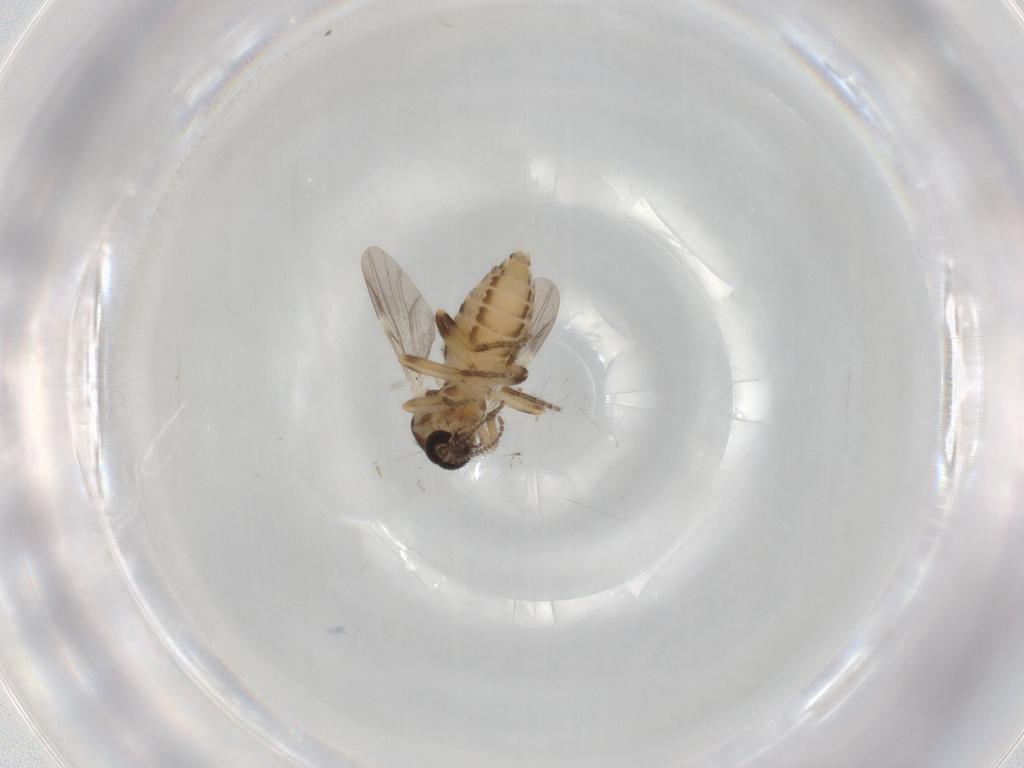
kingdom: Animalia
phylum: Arthropoda
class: Insecta
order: Diptera
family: Ceratopogonidae
